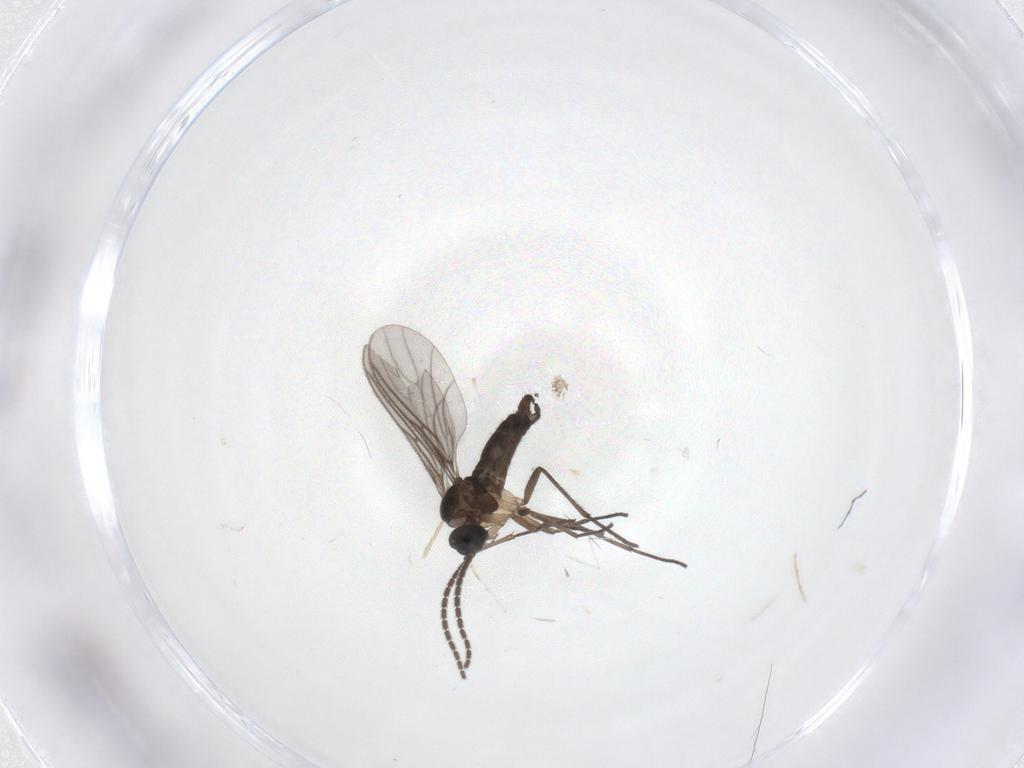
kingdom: Animalia
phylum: Arthropoda
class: Insecta
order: Diptera
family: Sciaridae
